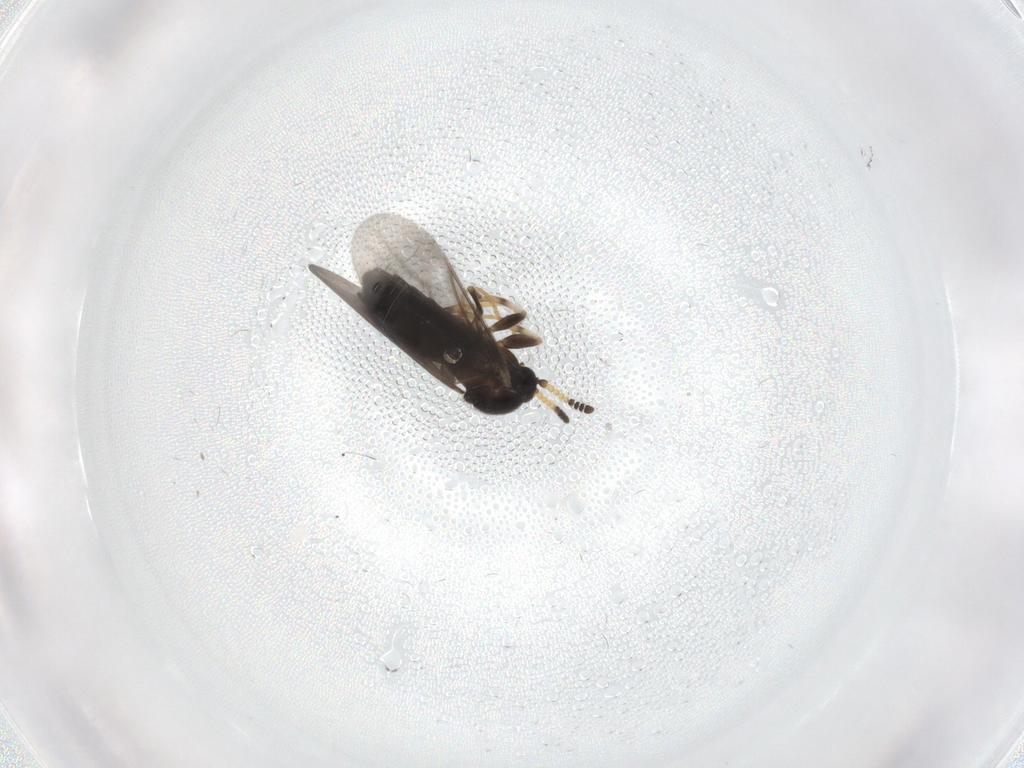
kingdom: Animalia
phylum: Arthropoda
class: Insecta
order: Diptera
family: Scatopsidae
